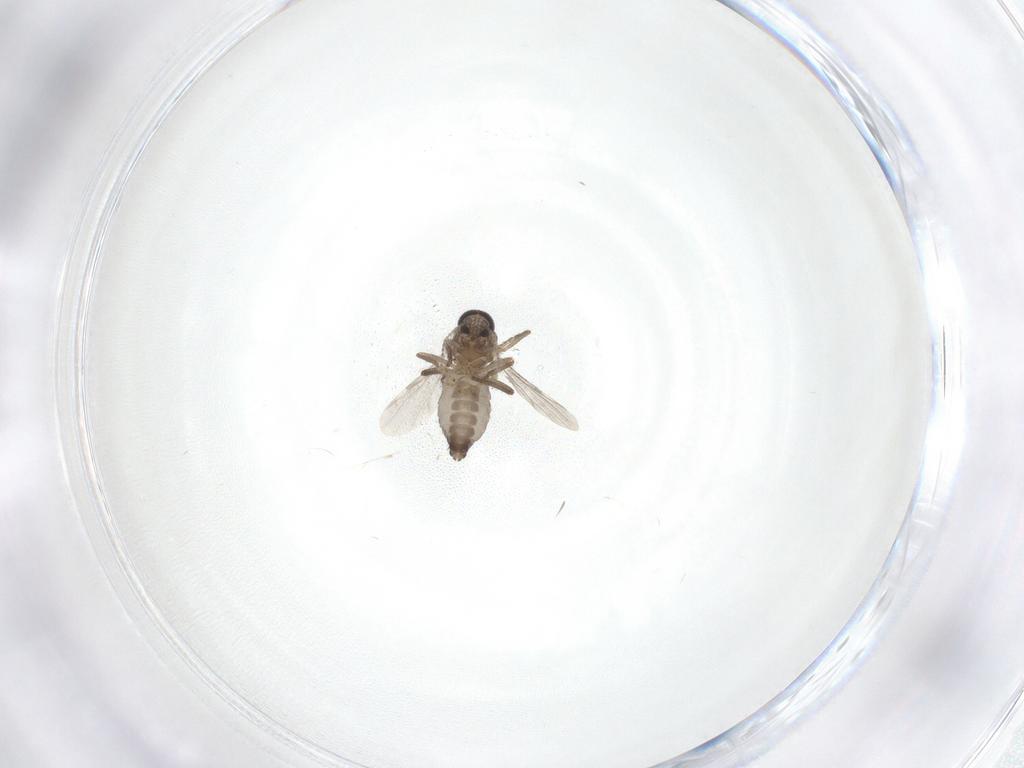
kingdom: Animalia
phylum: Arthropoda
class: Insecta
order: Diptera
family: Ceratopogonidae
